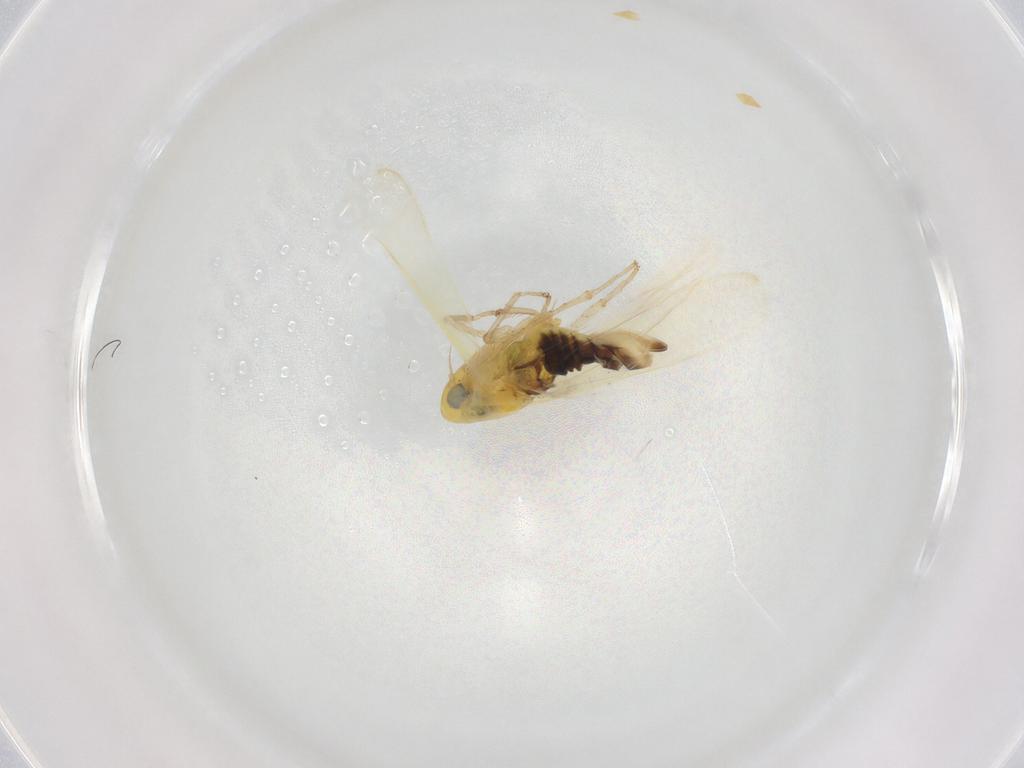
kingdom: Animalia
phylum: Arthropoda
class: Insecta
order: Hemiptera
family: Cicadellidae
